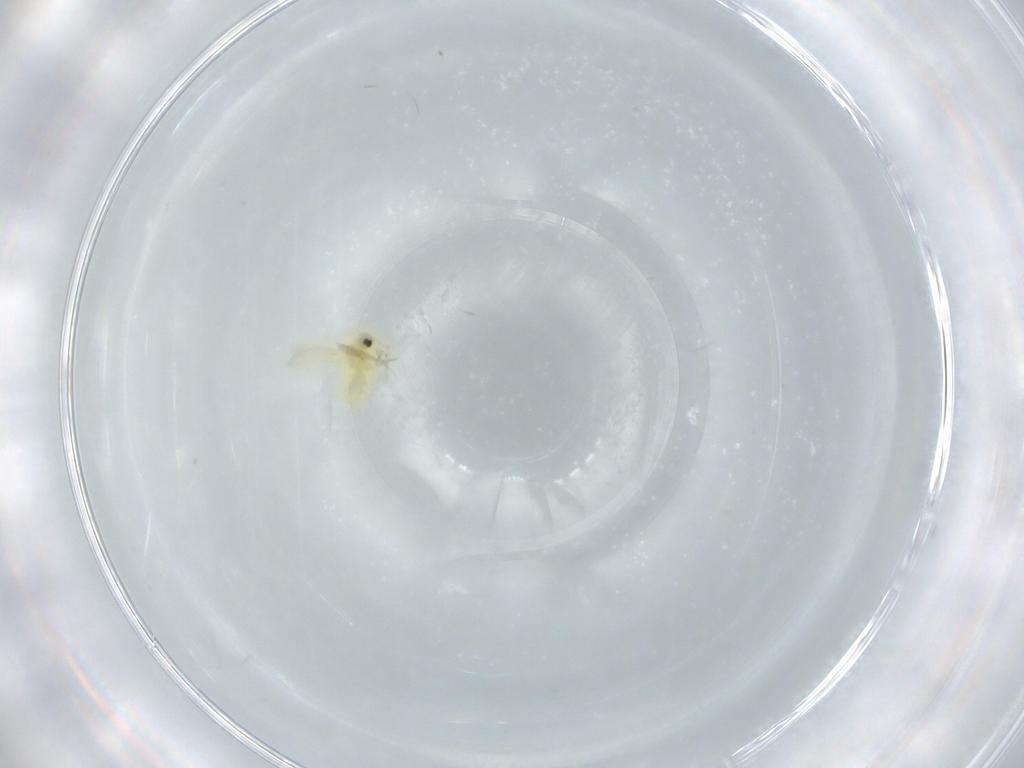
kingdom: Animalia
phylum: Arthropoda
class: Insecta
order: Hemiptera
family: Aleyrodidae
